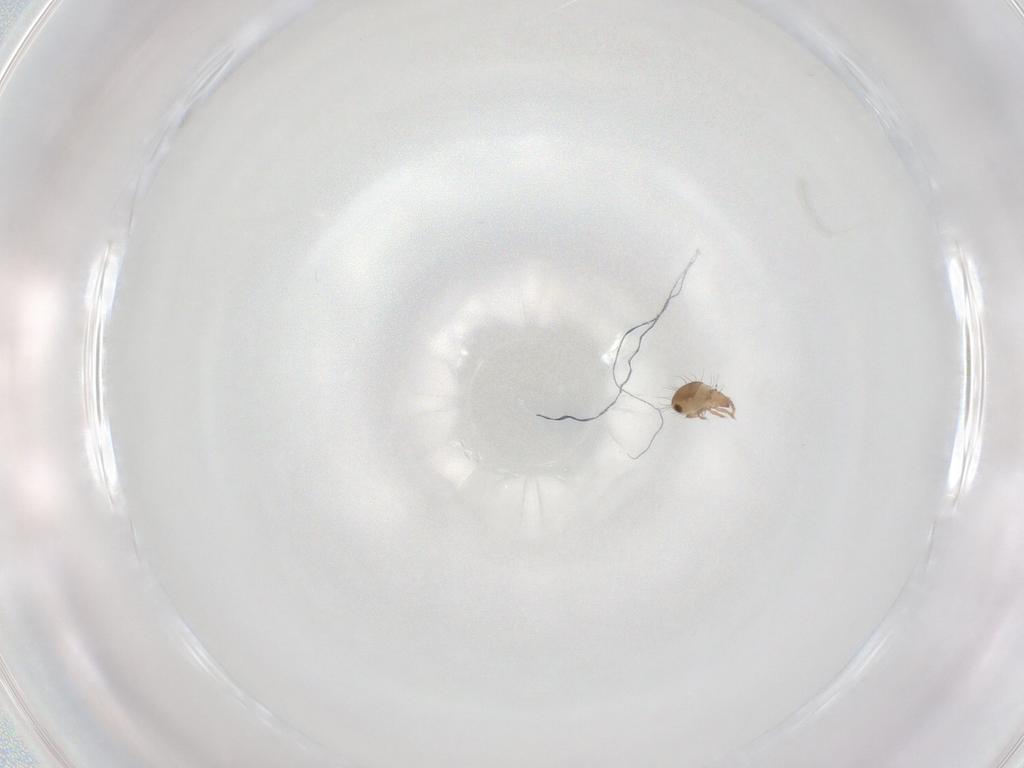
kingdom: Animalia
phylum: Arthropoda
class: Arachnida
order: Sarcoptiformes
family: Humerobatidae
